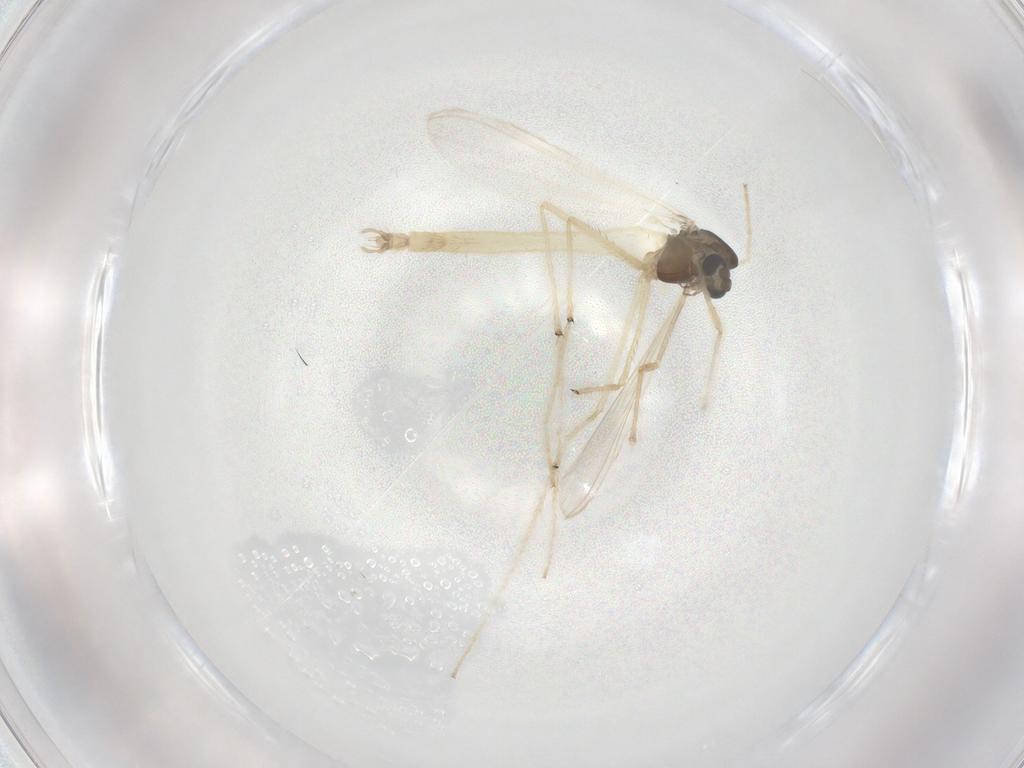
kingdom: Animalia
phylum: Arthropoda
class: Insecta
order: Diptera
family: Chironomidae
